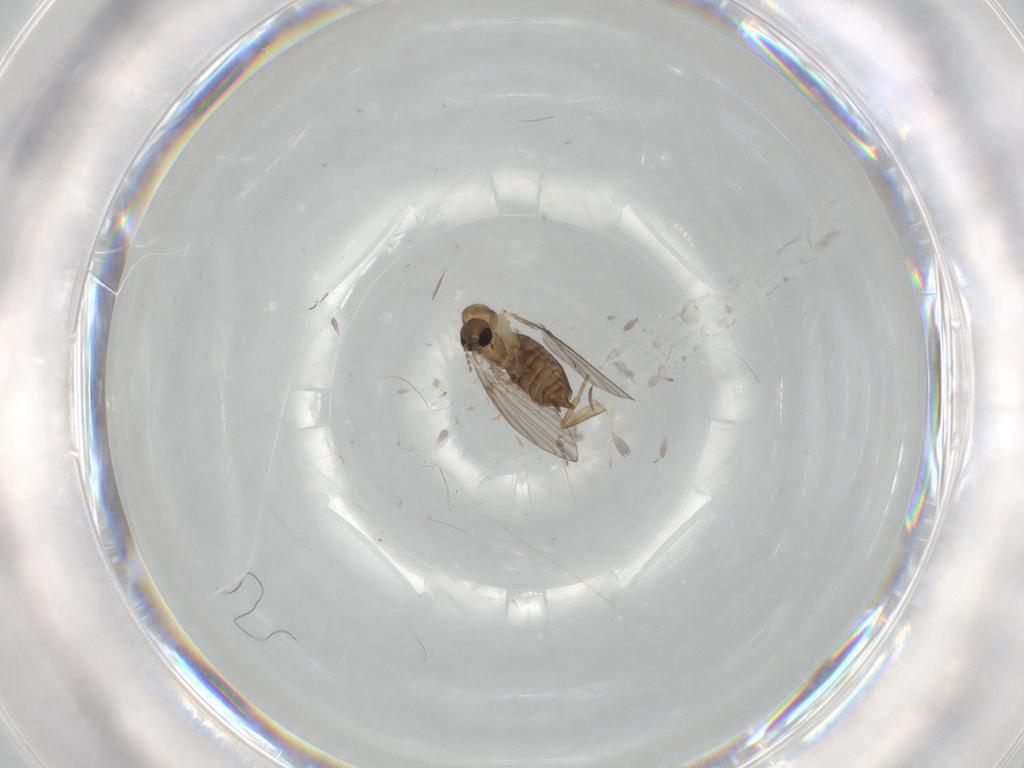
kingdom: Animalia
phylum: Arthropoda
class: Insecta
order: Diptera
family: Psychodidae
